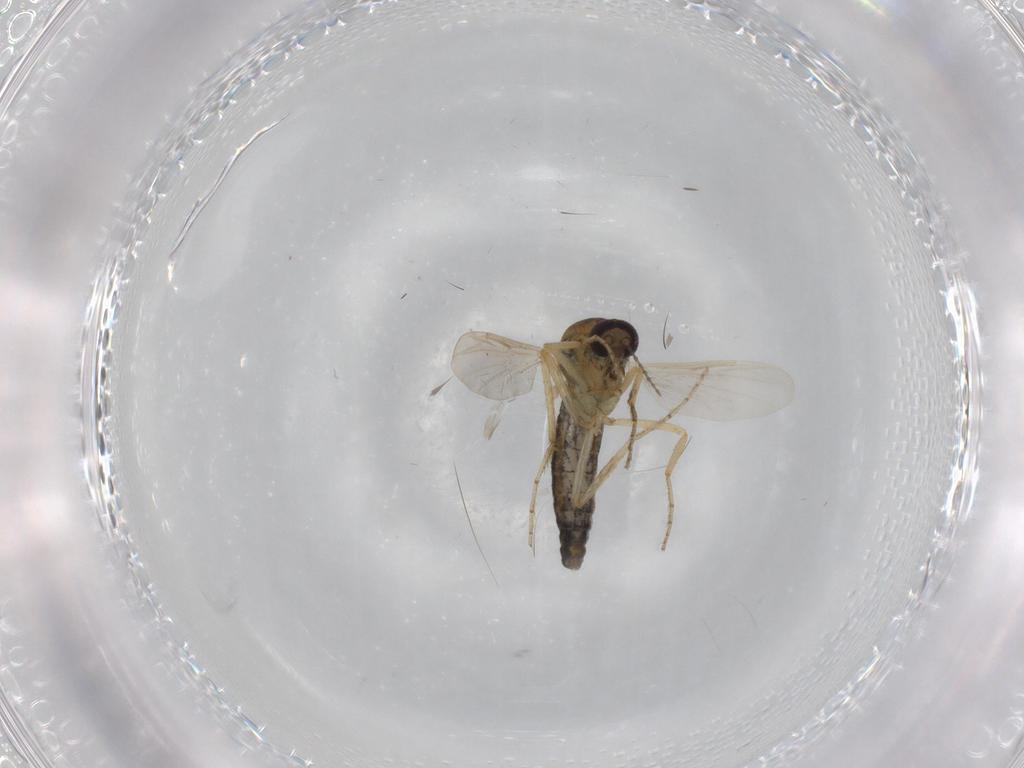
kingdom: Animalia
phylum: Arthropoda
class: Insecta
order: Diptera
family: Ceratopogonidae
